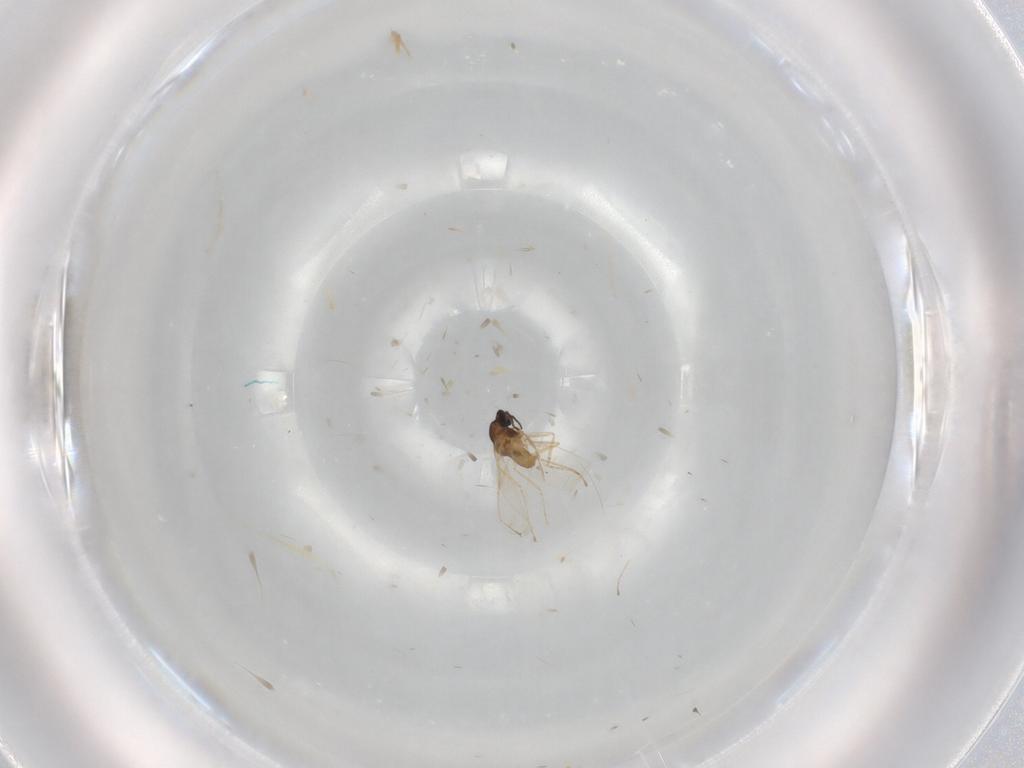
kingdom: Animalia
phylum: Arthropoda
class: Insecta
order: Diptera
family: Cecidomyiidae
